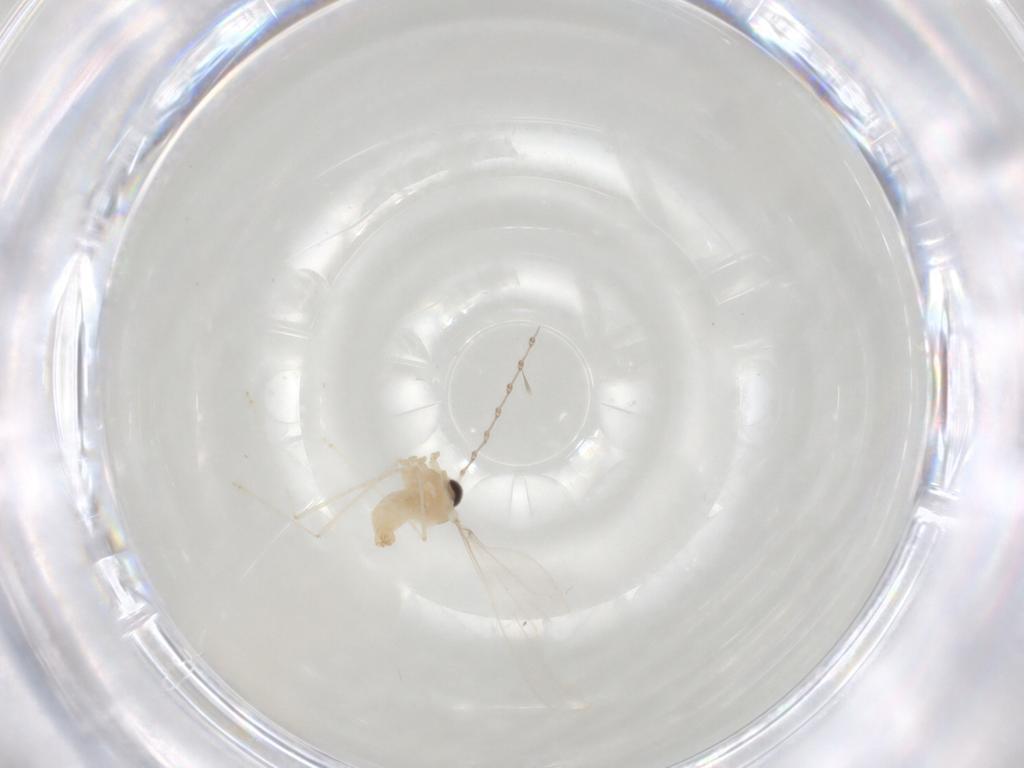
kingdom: Animalia
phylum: Arthropoda
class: Insecta
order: Diptera
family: Cecidomyiidae
